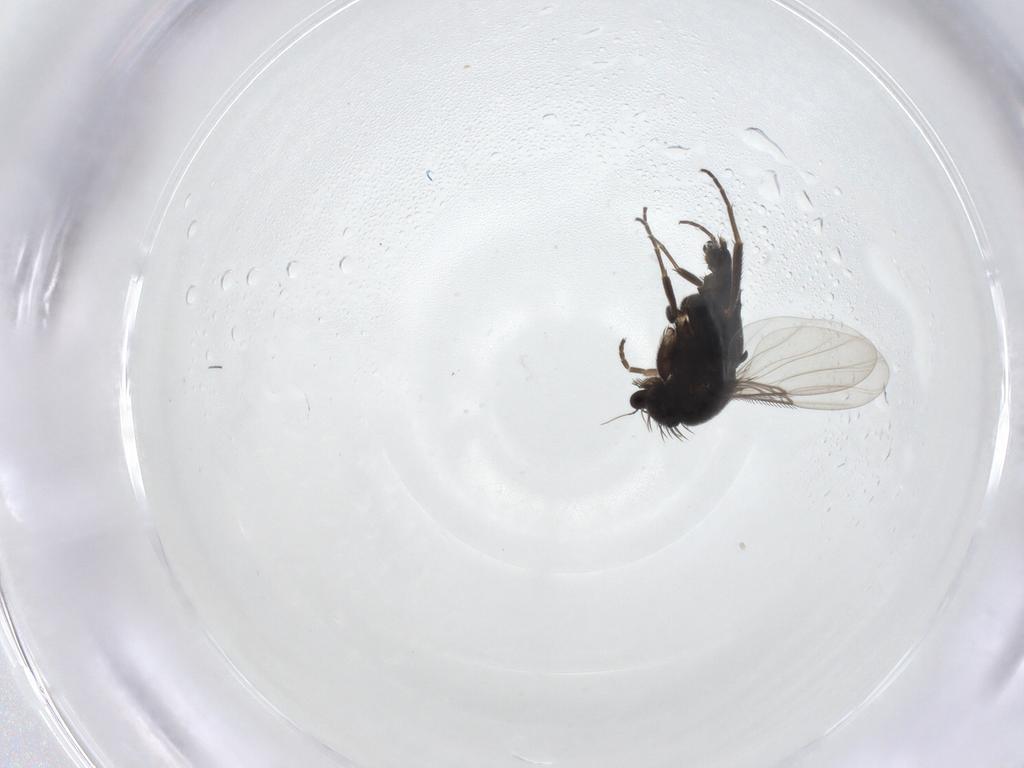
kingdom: Animalia
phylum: Arthropoda
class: Insecta
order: Diptera
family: Phoridae
